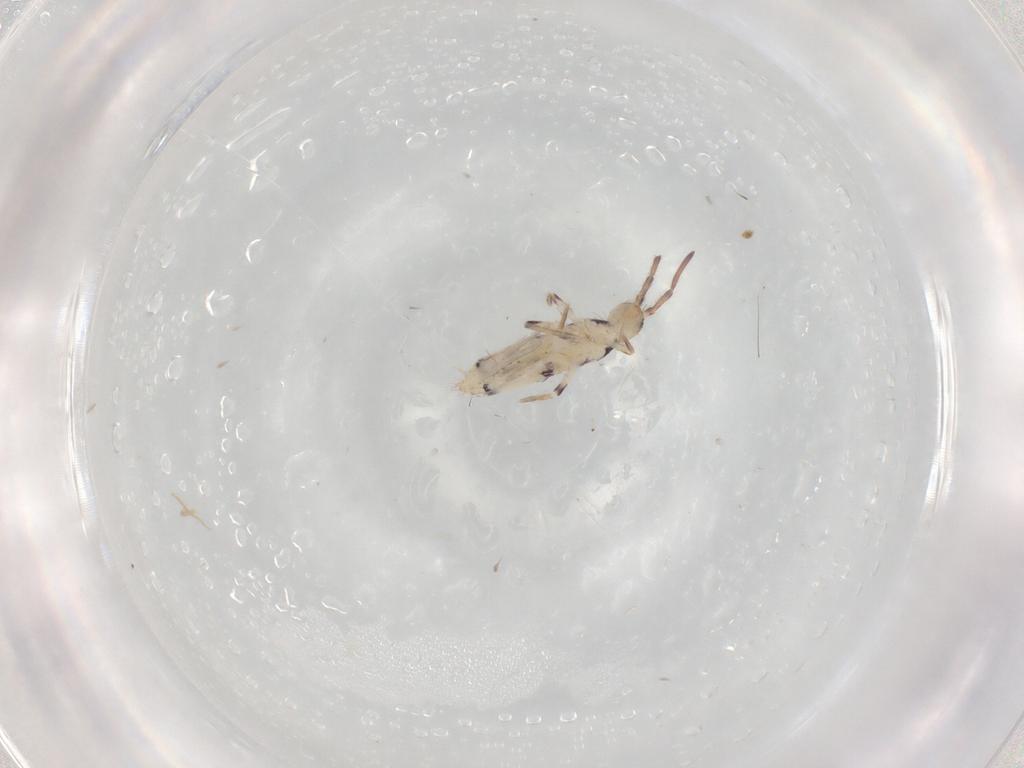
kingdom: Animalia
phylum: Arthropoda
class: Collembola
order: Entomobryomorpha
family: Entomobryidae
